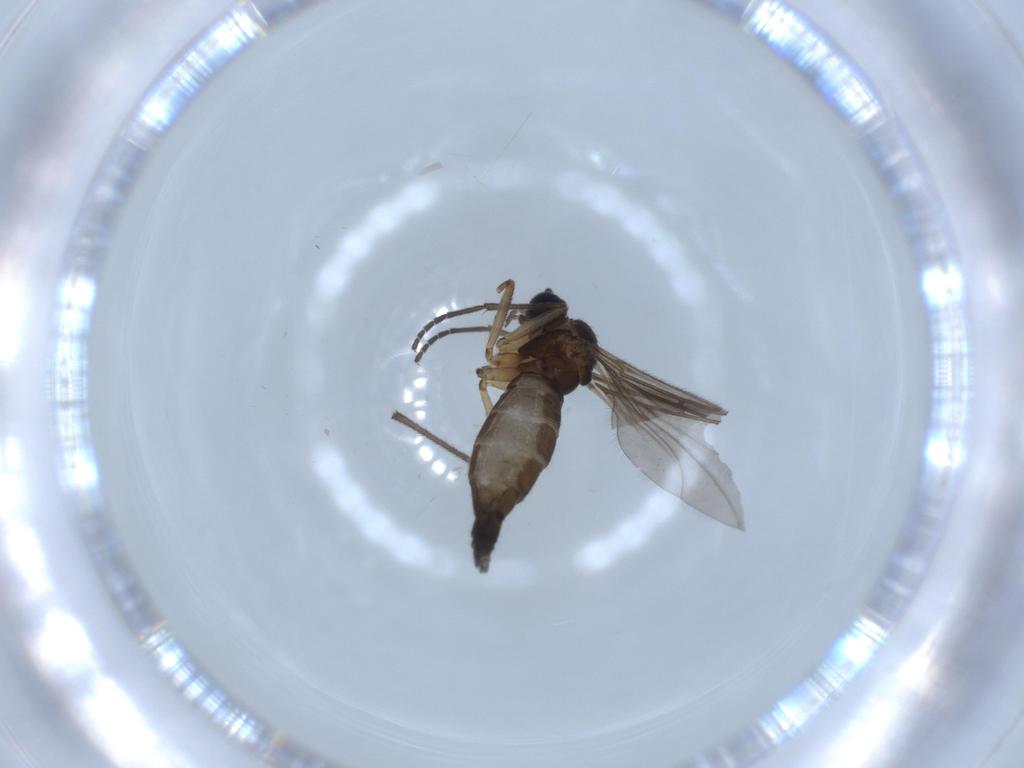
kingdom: Animalia
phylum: Arthropoda
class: Insecta
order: Diptera
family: Sciaridae
